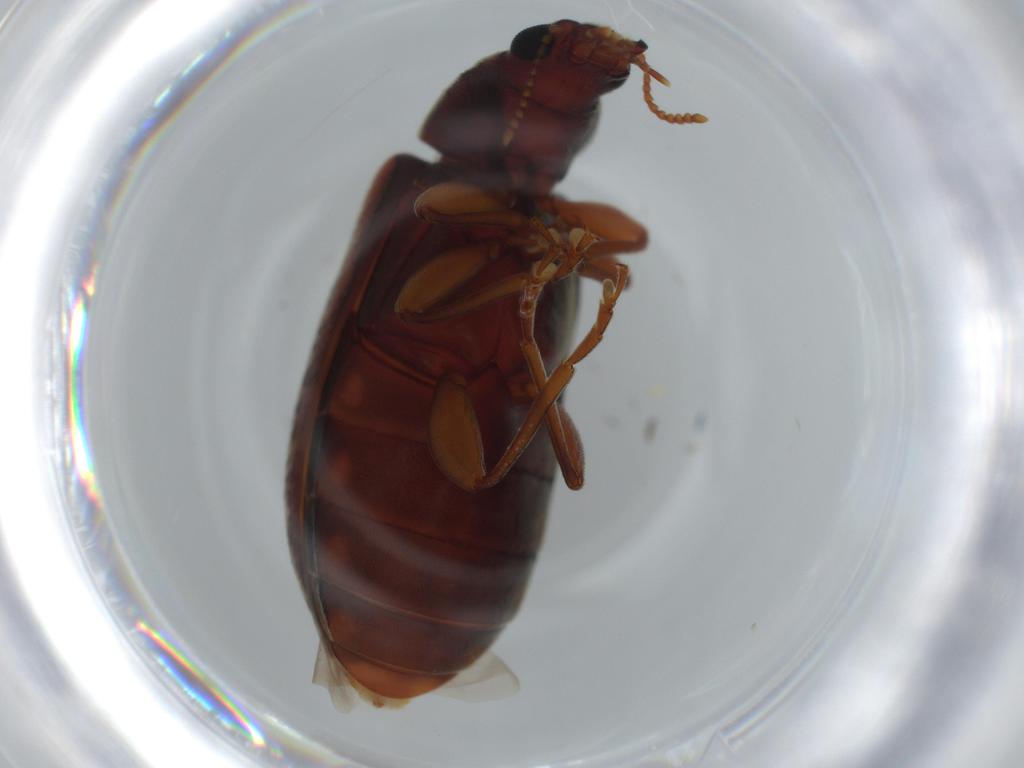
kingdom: Animalia
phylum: Arthropoda
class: Insecta
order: Coleoptera
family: Mycteridae
